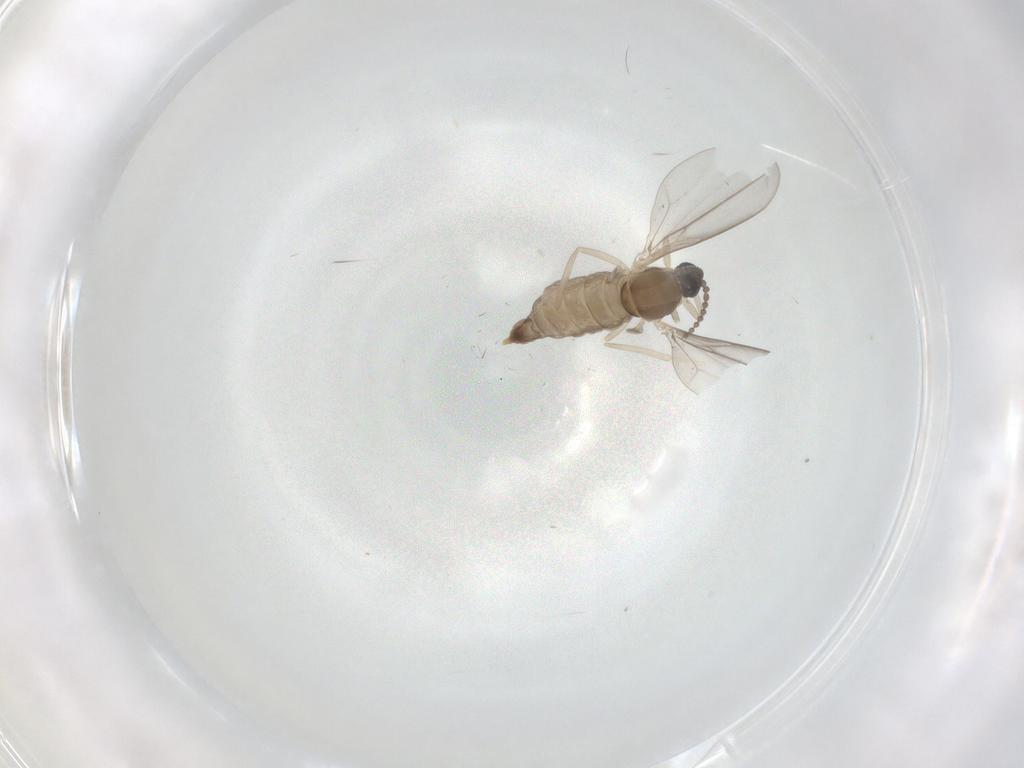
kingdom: Animalia
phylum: Arthropoda
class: Insecta
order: Diptera
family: Cecidomyiidae
